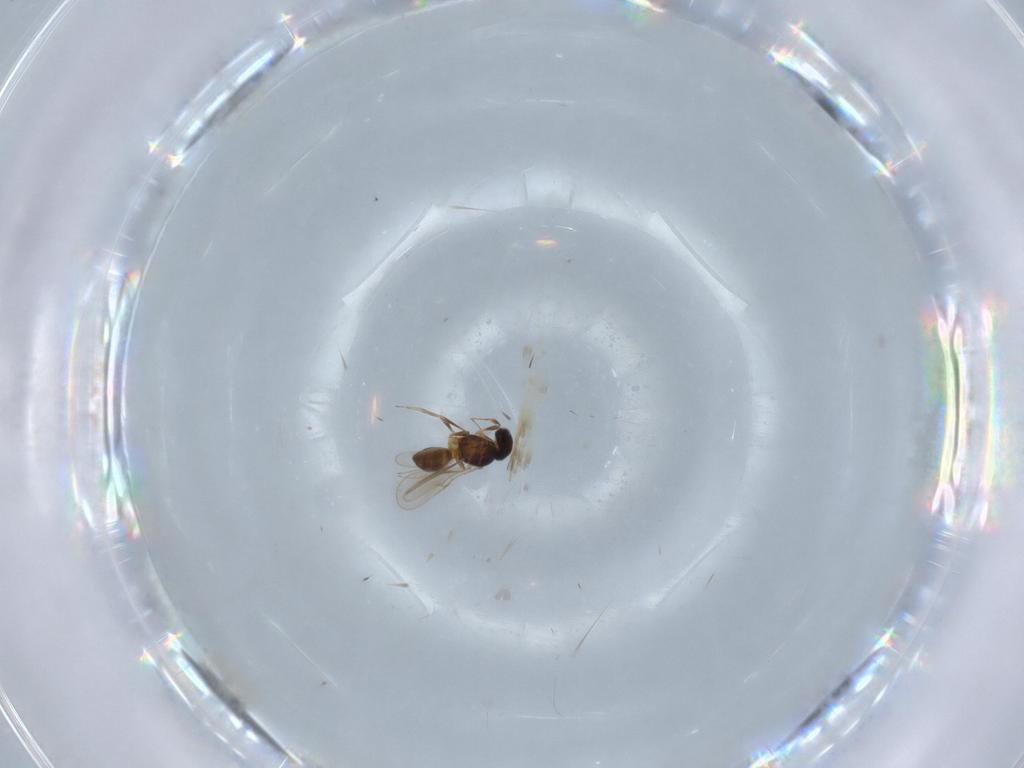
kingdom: Animalia
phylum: Arthropoda
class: Insecta
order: Hymenoptera
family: Scelionidae
